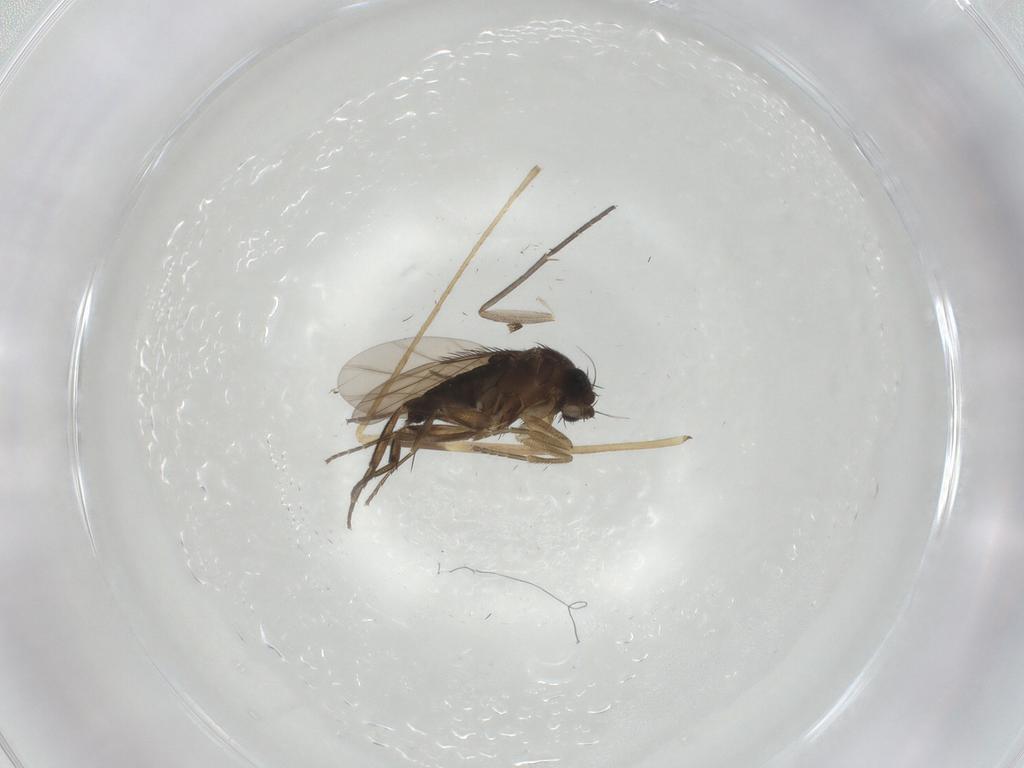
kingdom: Animalia
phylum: Arthropoda
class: Insecta
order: Diptera
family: Phoridae
